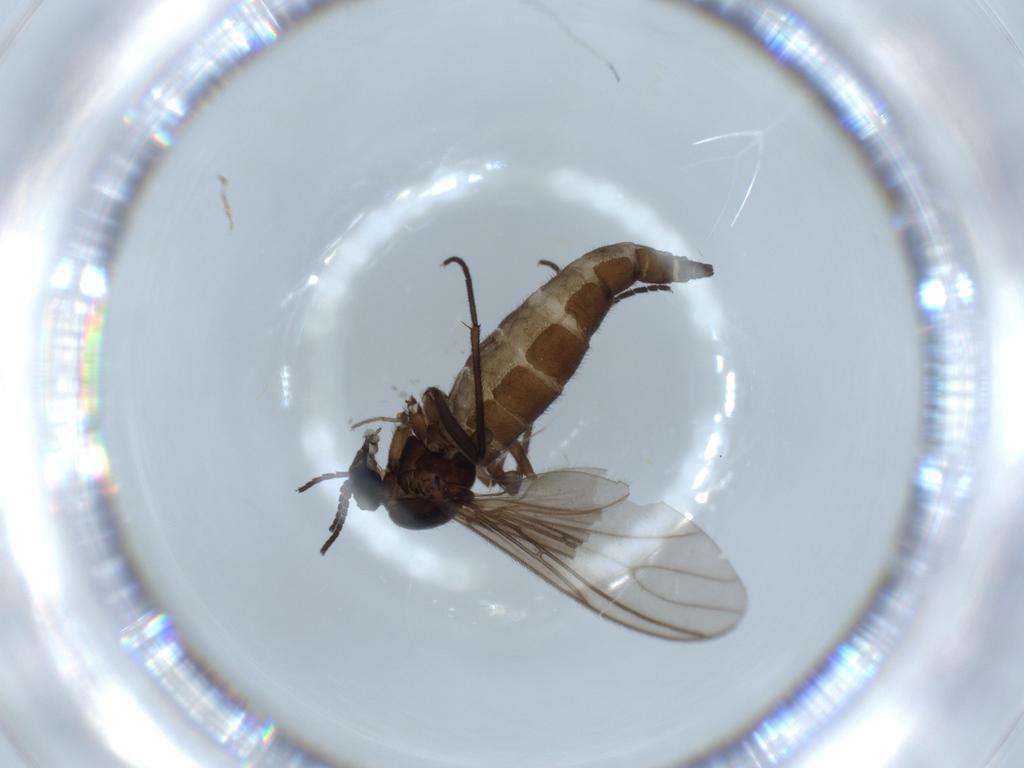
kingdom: Animalia
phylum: Arthropoda
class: Insecta
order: Diptera
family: Sciaridae
